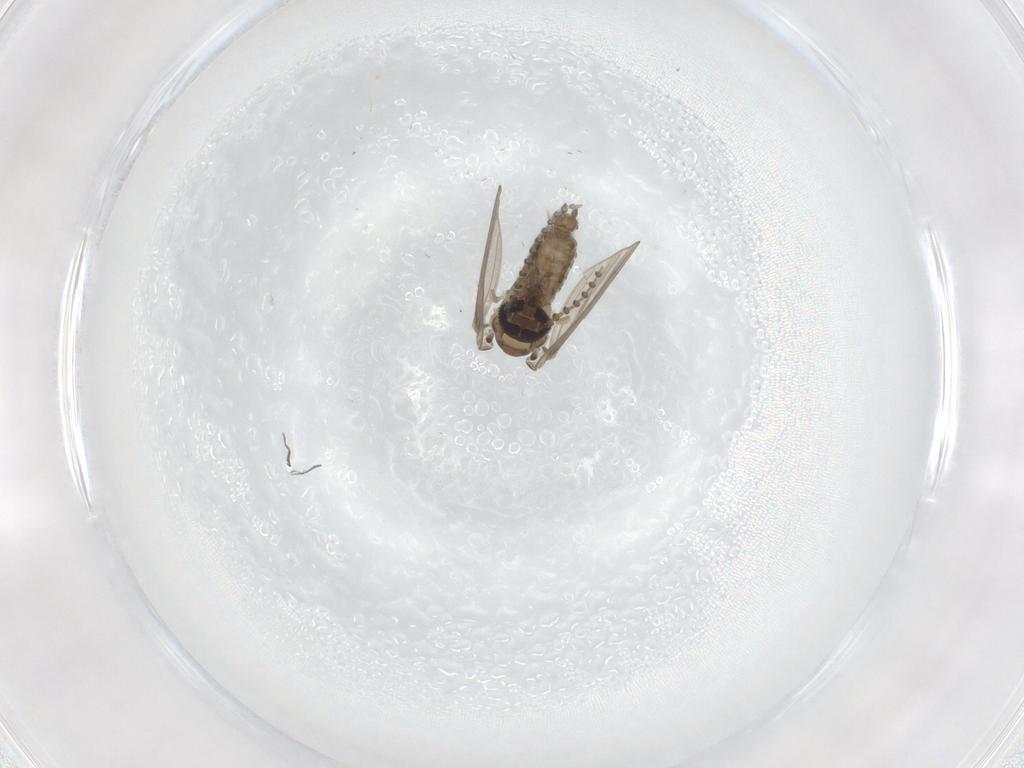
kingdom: Animalia
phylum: Arthropoda
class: Insecta
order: Diptera
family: Psychodidae
